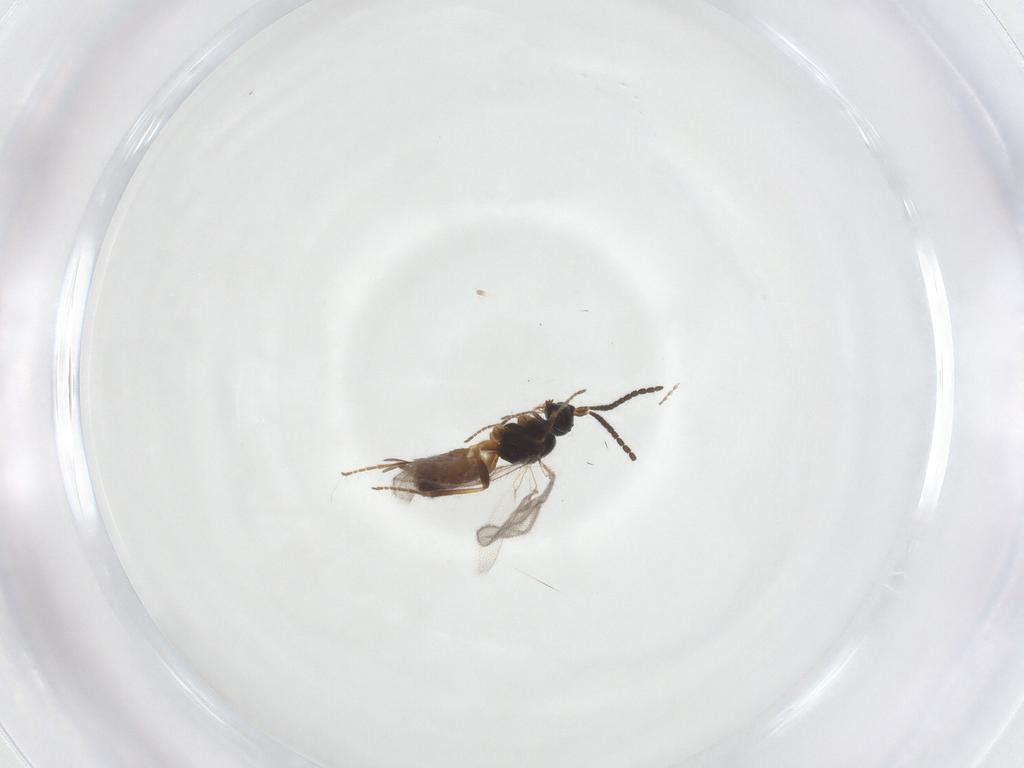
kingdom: Animalia
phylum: Arthropoda
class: Insecta
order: Hymenoptera
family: Braconidae
